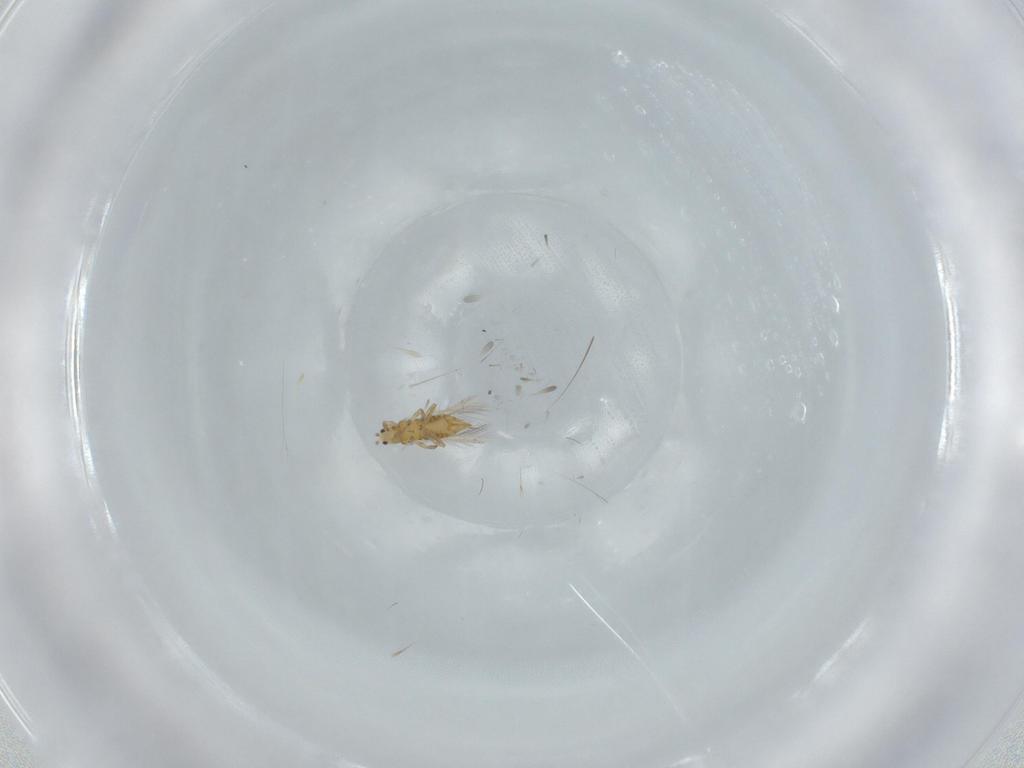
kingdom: Animalia
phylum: Arthropoda
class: Insecta
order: Thysanoptera
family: Thripidae
